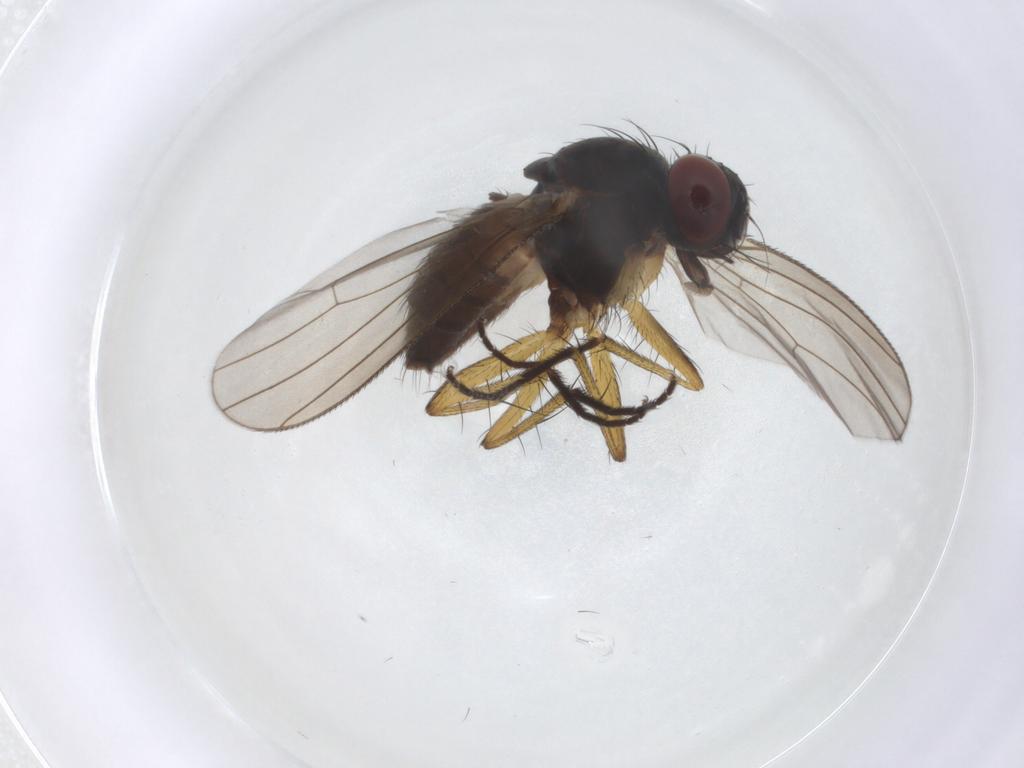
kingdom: Animalia
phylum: Arthropoda
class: Insecta
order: Diptera
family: Muscidae
